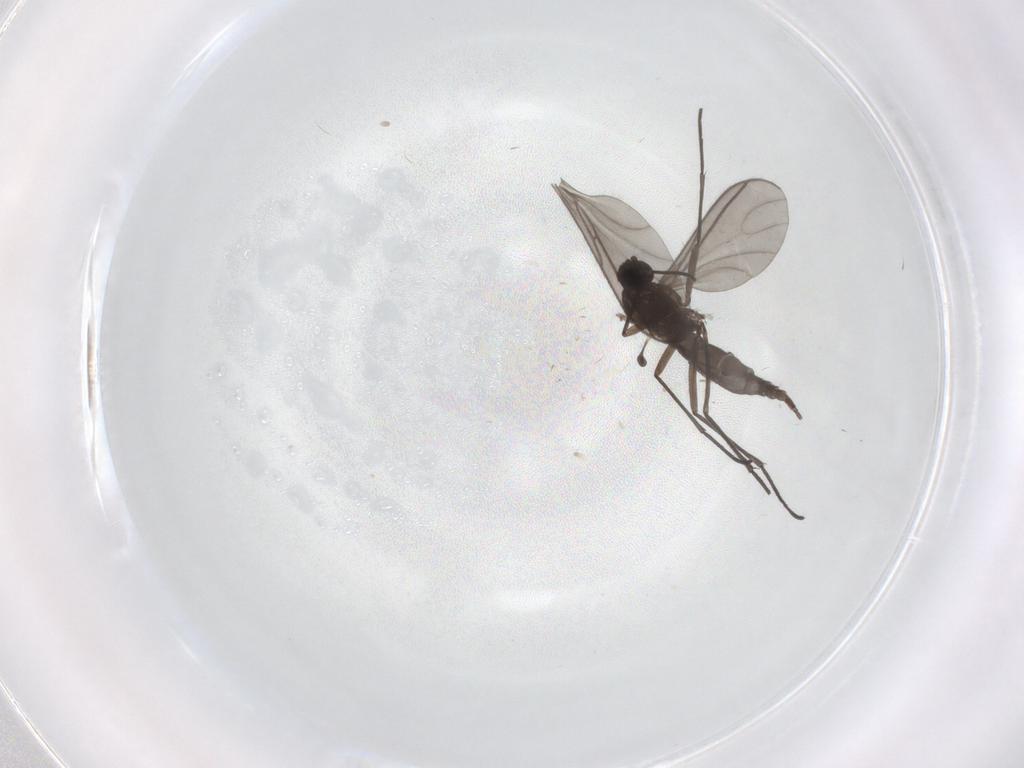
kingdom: Animalia
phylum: Arthropoda
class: Insecta
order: Diptera
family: Sciaridae
